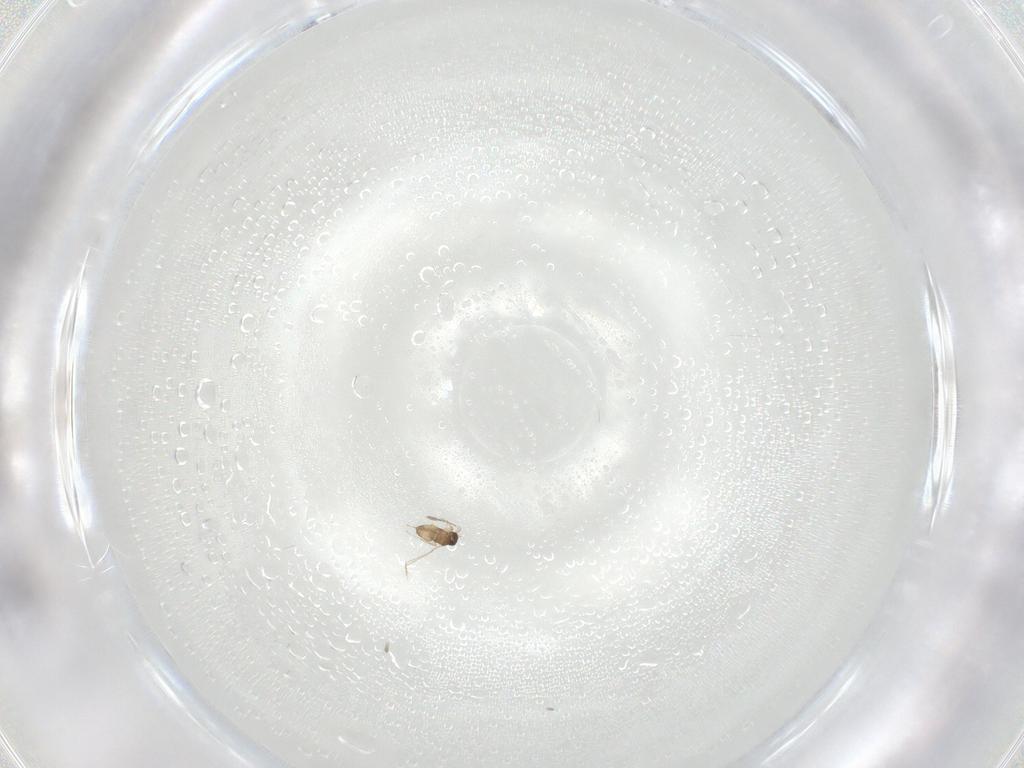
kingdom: Animalia
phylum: Arthropoda
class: Insecta
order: Hymenoptera
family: Mymaridae
